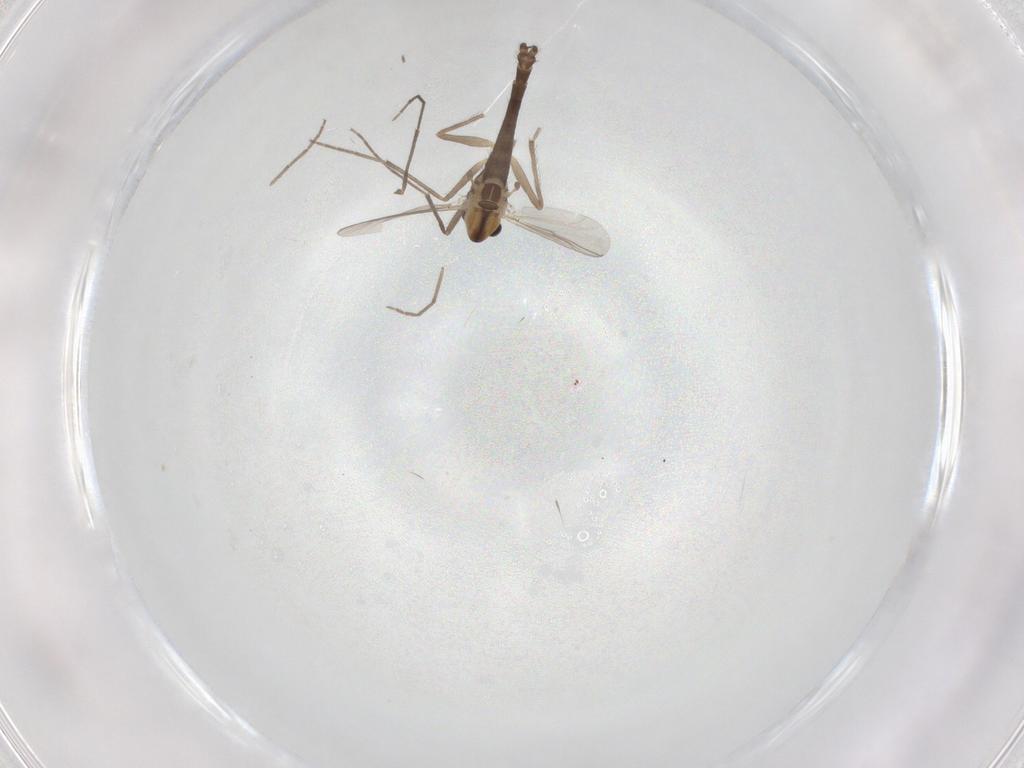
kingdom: Animalia
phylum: Arthropoda
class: Insecta
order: Diptera
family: Chironomidae
